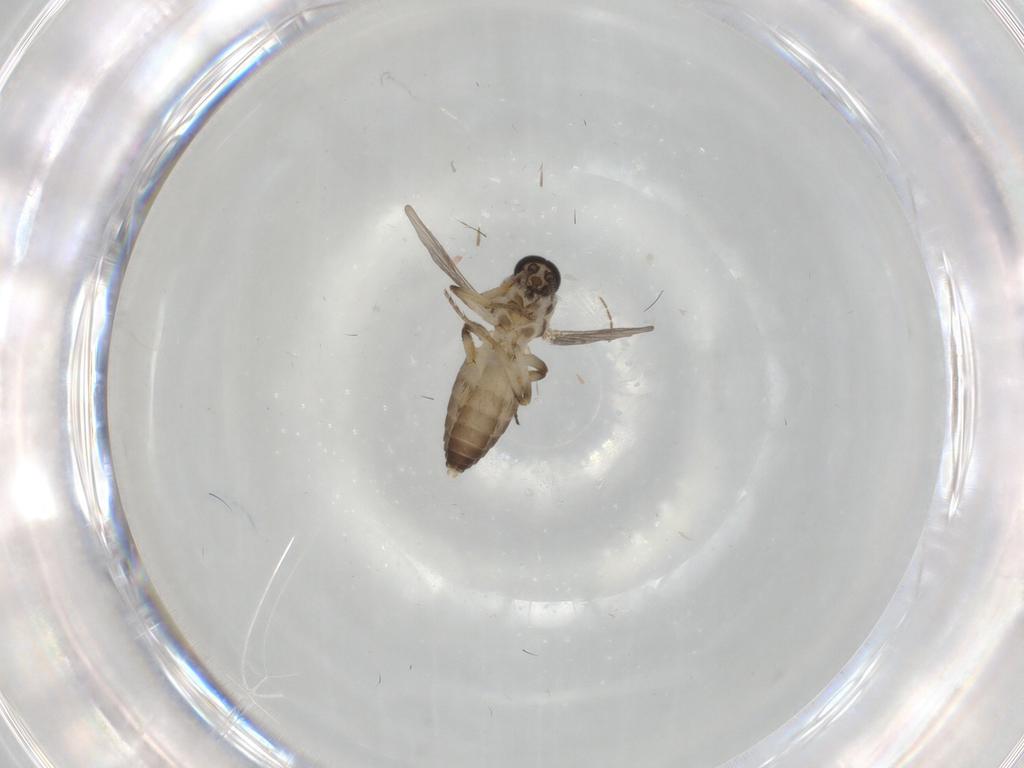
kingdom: Animalia
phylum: Arthropoda
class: Insecta
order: Diptera
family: Ceratopogonidae
